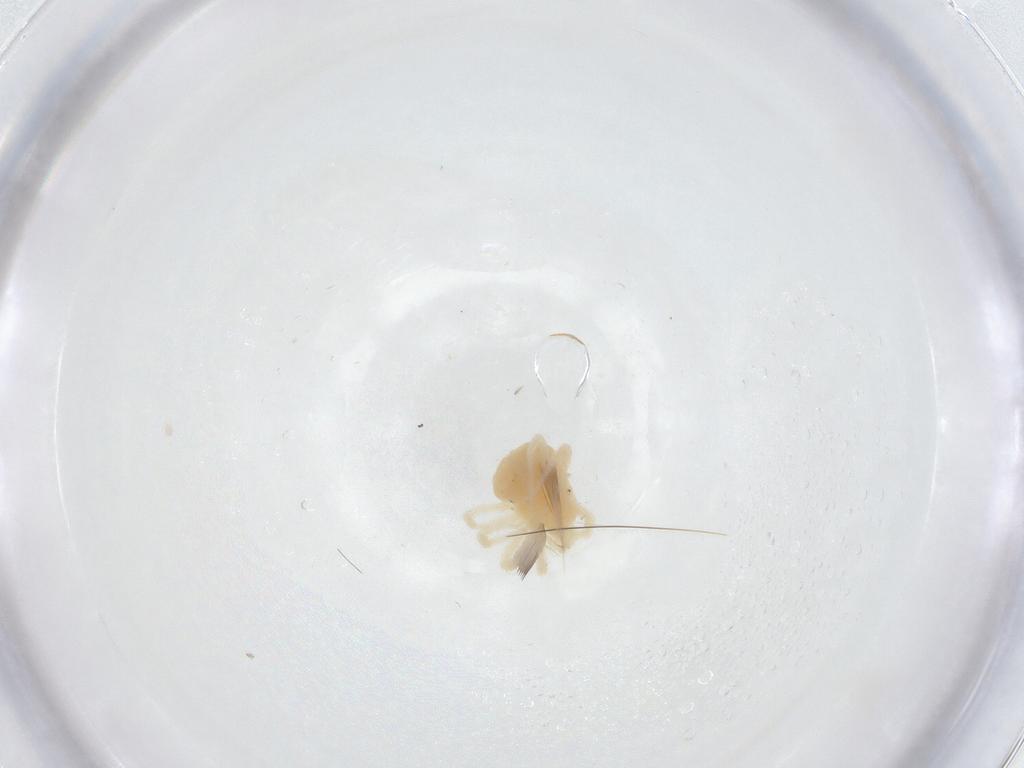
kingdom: Animalia
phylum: Arthropoda
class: Arachnida
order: Trombidiformes
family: Anystidae
